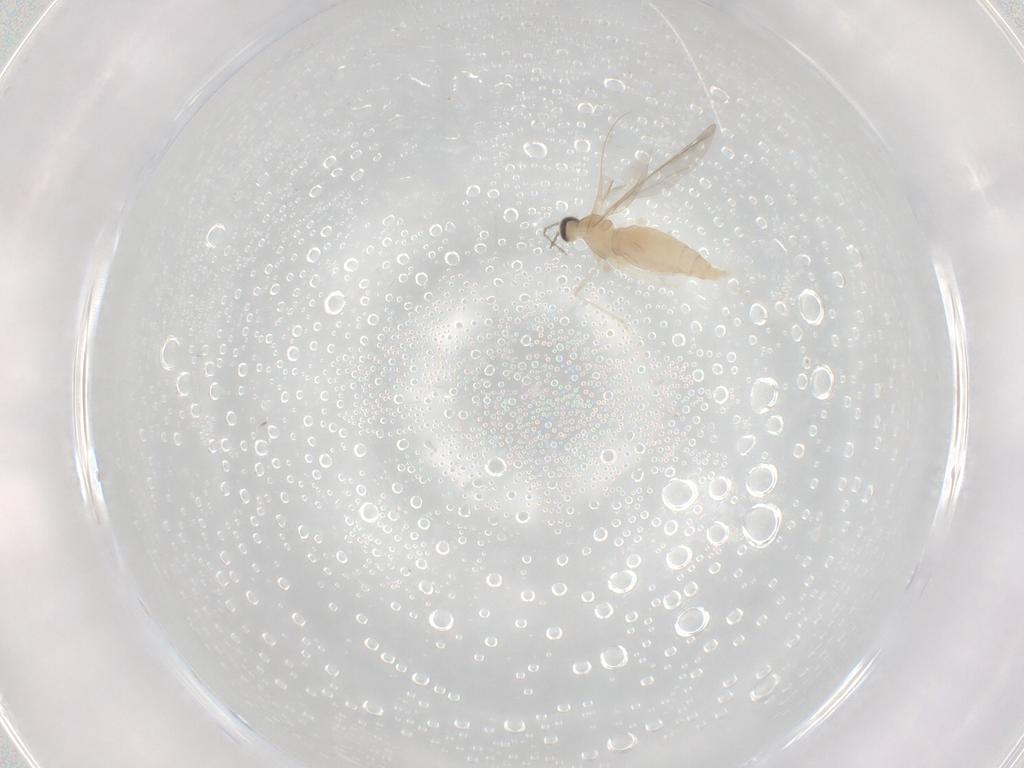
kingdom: Animalia
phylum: Arthropoda
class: Insecta
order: Diptera
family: Cecidomyiidae
